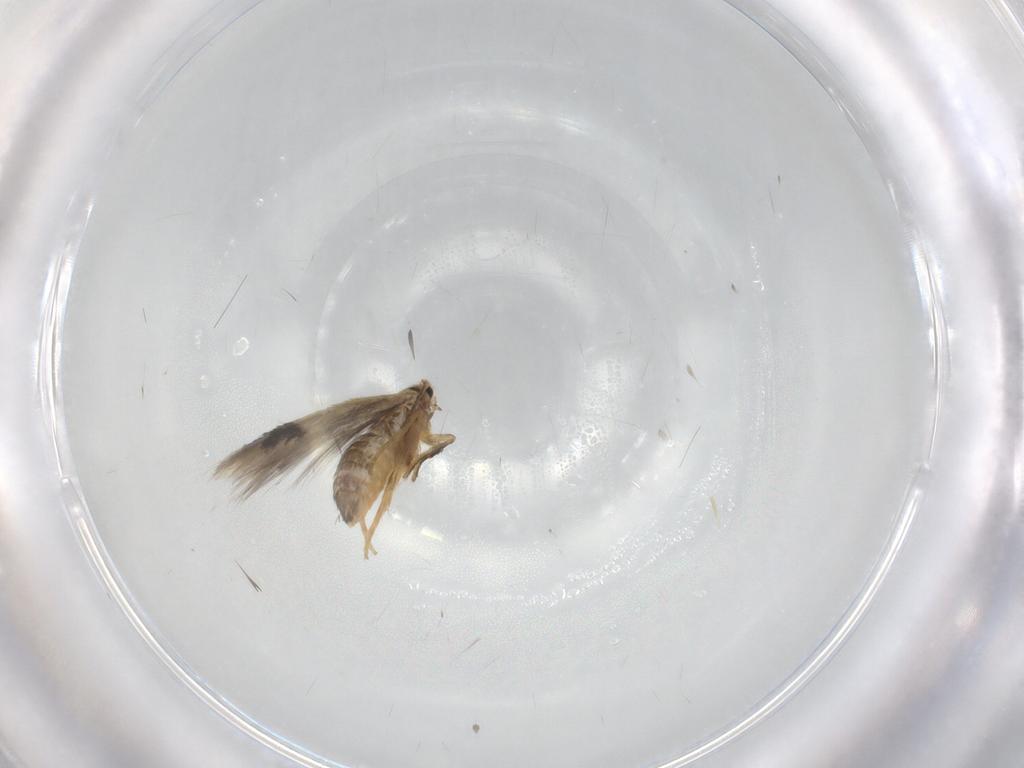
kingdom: Animalia
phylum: Arthropoda
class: Insecta
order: Lepidoptera
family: Nepticulidae
